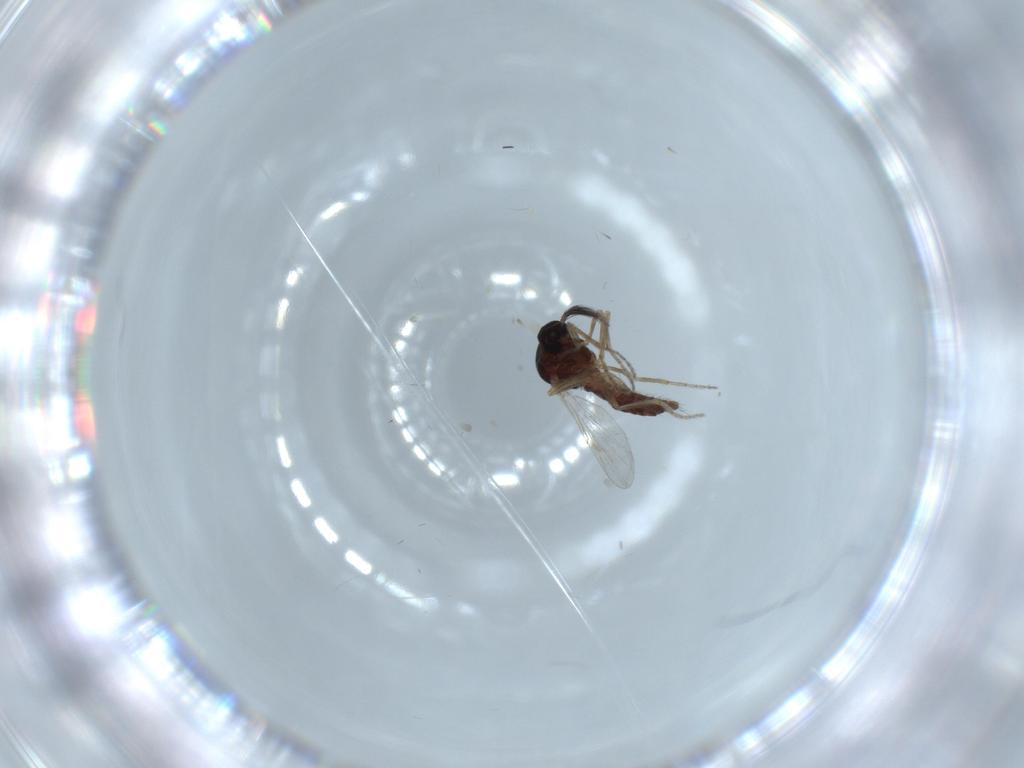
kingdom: Animalia
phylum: Arthropoda
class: Insecta
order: Diptera
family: Ceratopogonidae
